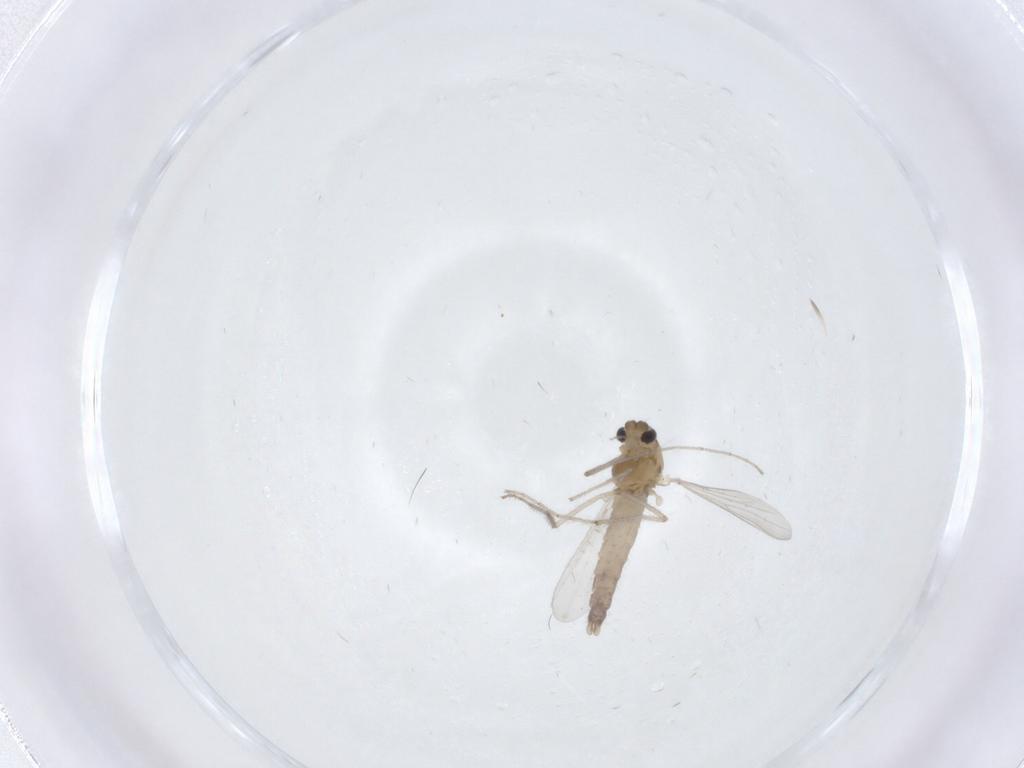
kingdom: Animalia
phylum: Arthropoda
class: Insecta
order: Diptera
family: Chironomidae
